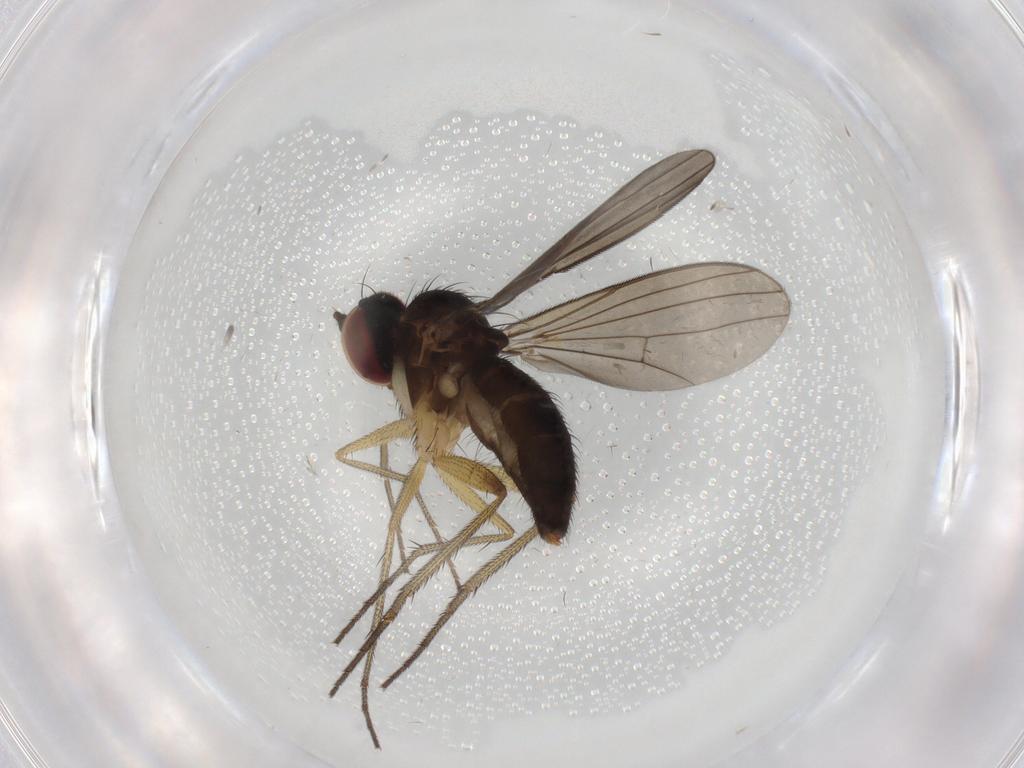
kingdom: Animalia
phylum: Arthropoda
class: Insecta
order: Diptera
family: Dolichopodidae
